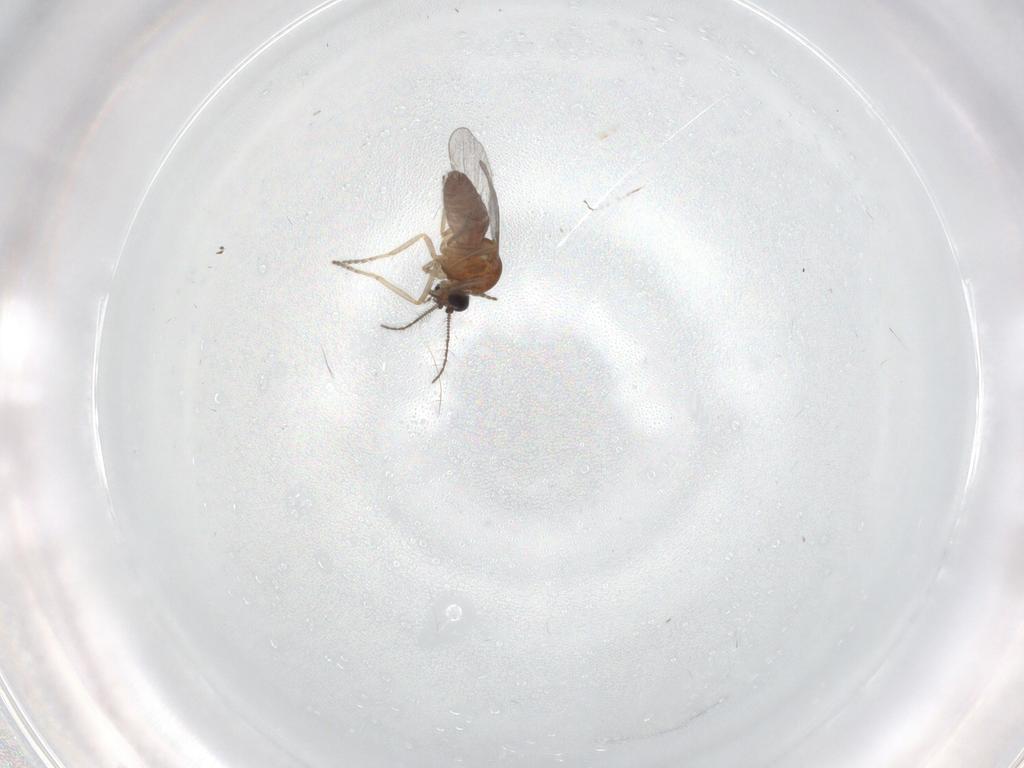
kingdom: Animalia
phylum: Arthropoda
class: Insecta
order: Diptera
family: Ceratopogonidae
